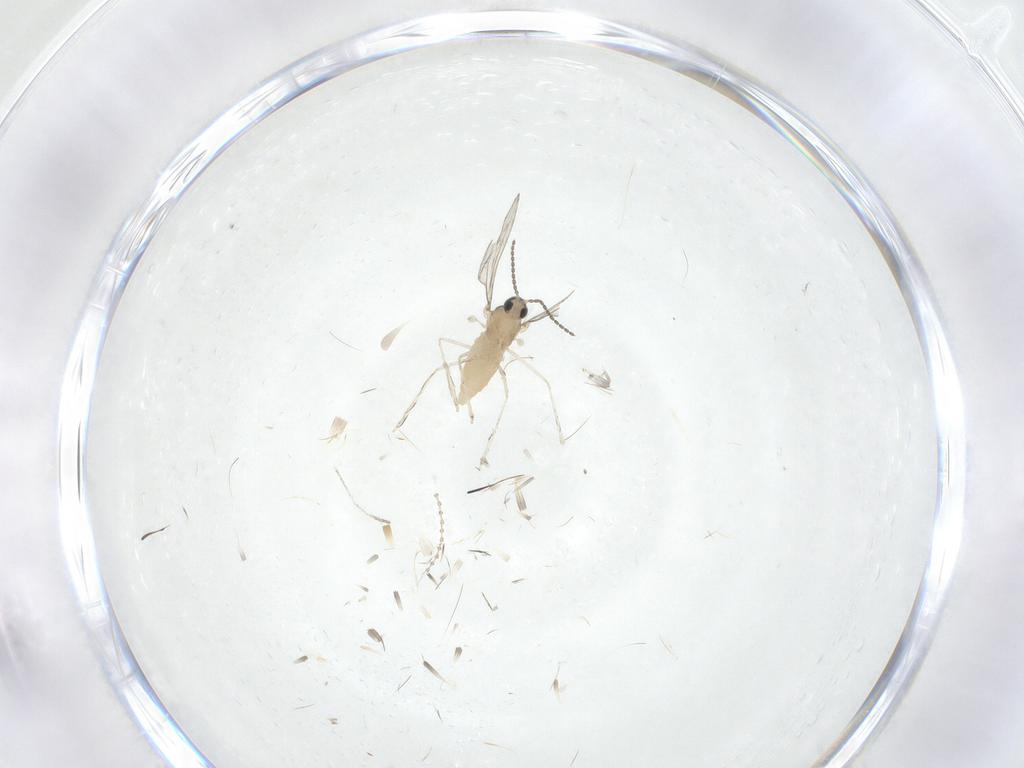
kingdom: Animalia
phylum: Arthropoda
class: Insecta
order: Diptera
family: Cecidomyiidae
